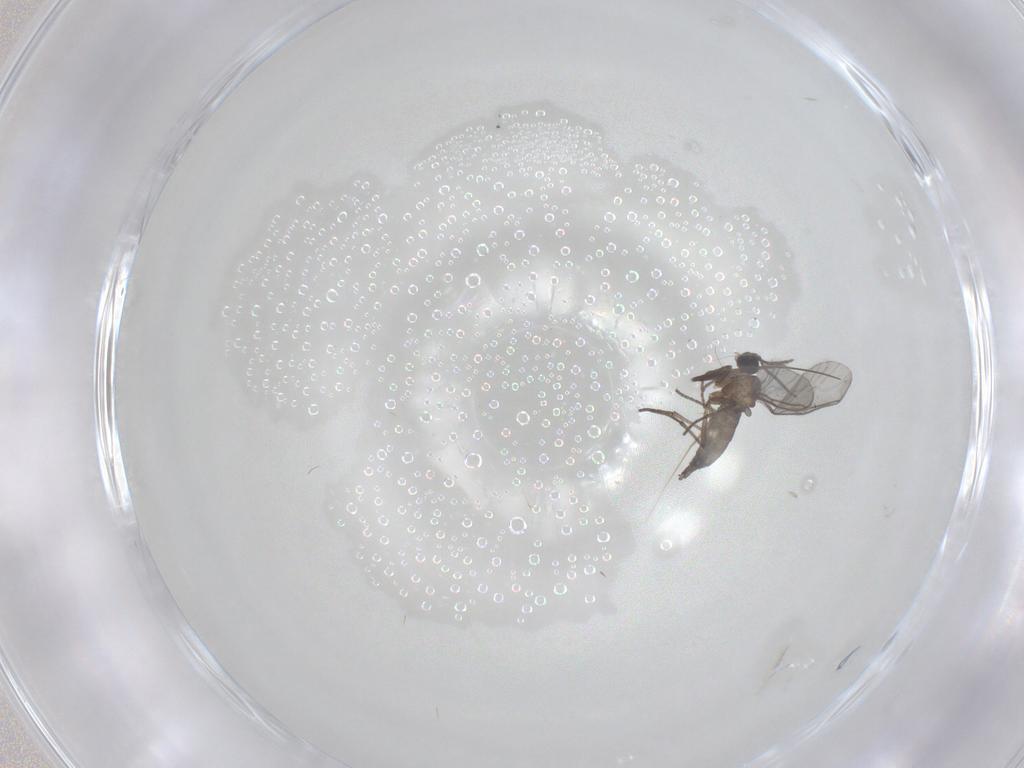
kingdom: Animalia
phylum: Arthropoda
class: Insecta
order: Diptera
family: Sciaridae
